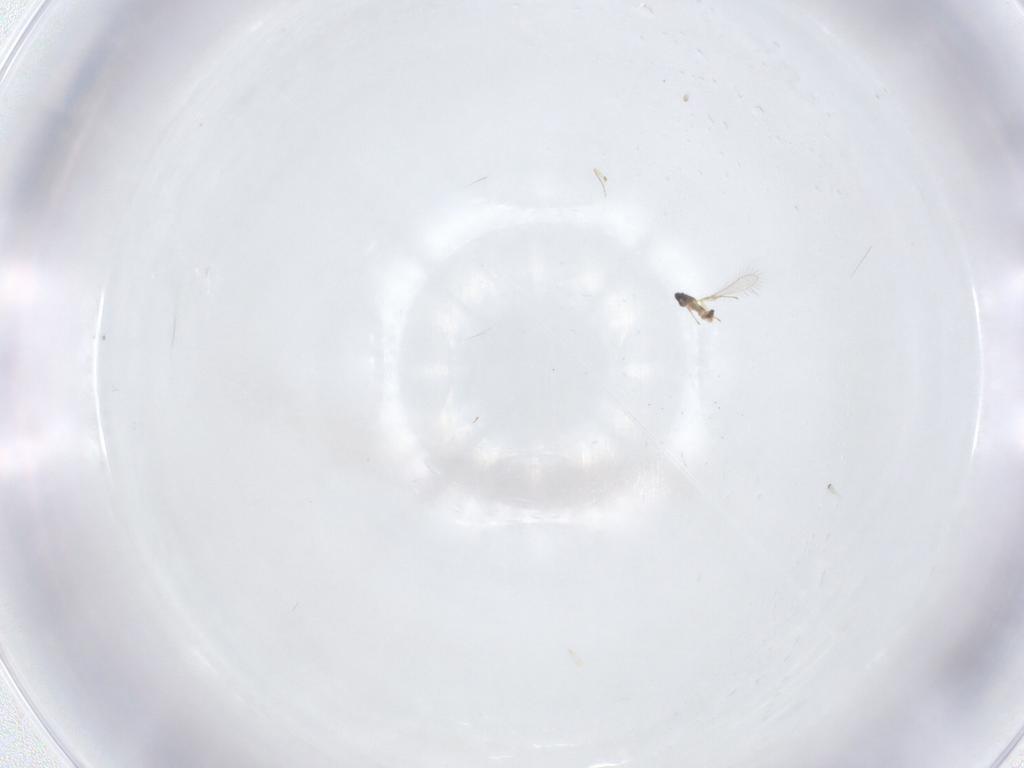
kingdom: Animalia
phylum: Arthropoda
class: Insecta
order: Hymenoptera
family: Mymaridae
